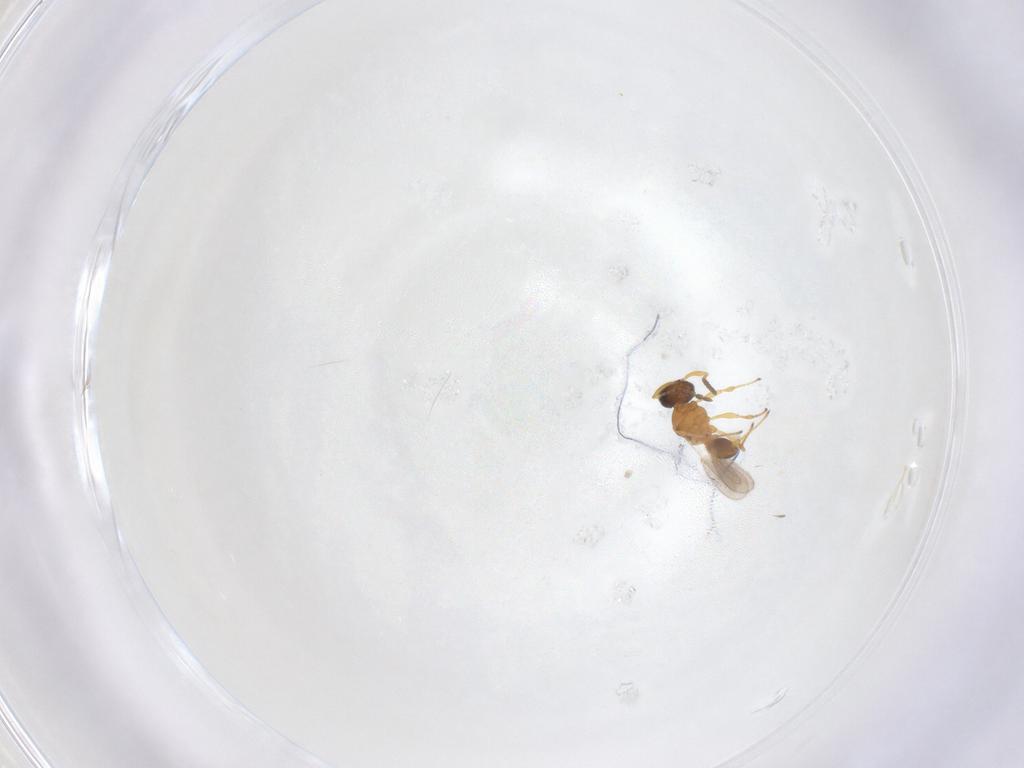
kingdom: Animalia
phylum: Arthropoda
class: Insecta
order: Hymenoptera
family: Platygastridae
